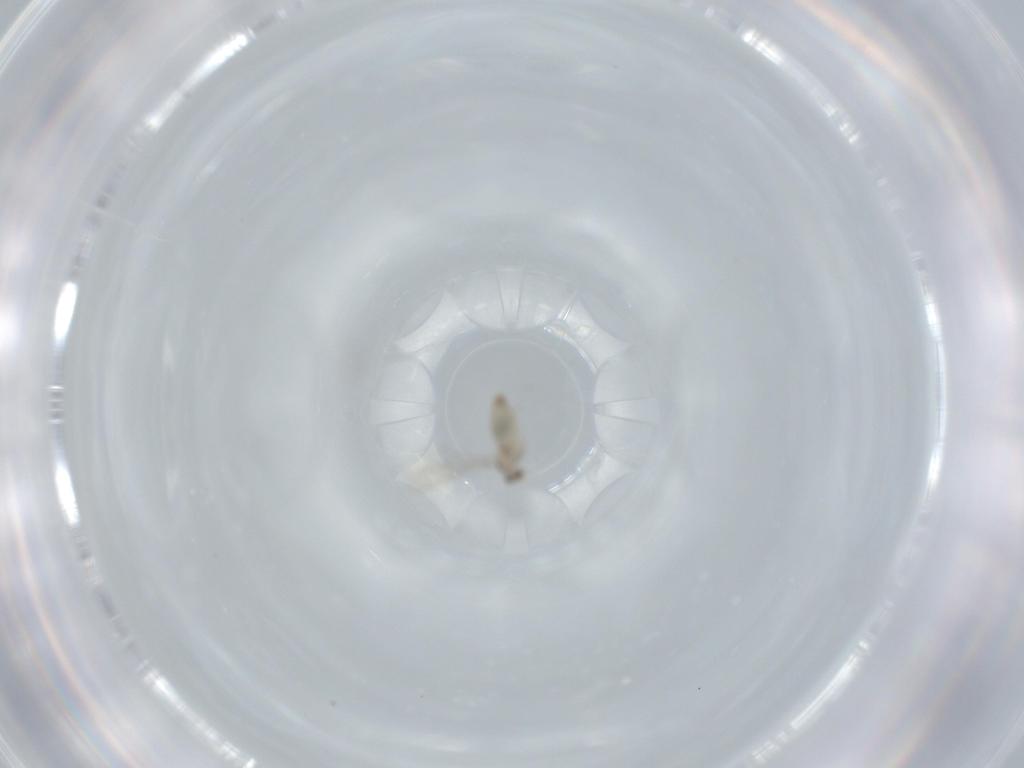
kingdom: Animalia
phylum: Arthropoda
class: Insecta
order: Diptera
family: Cecidomyiidae
